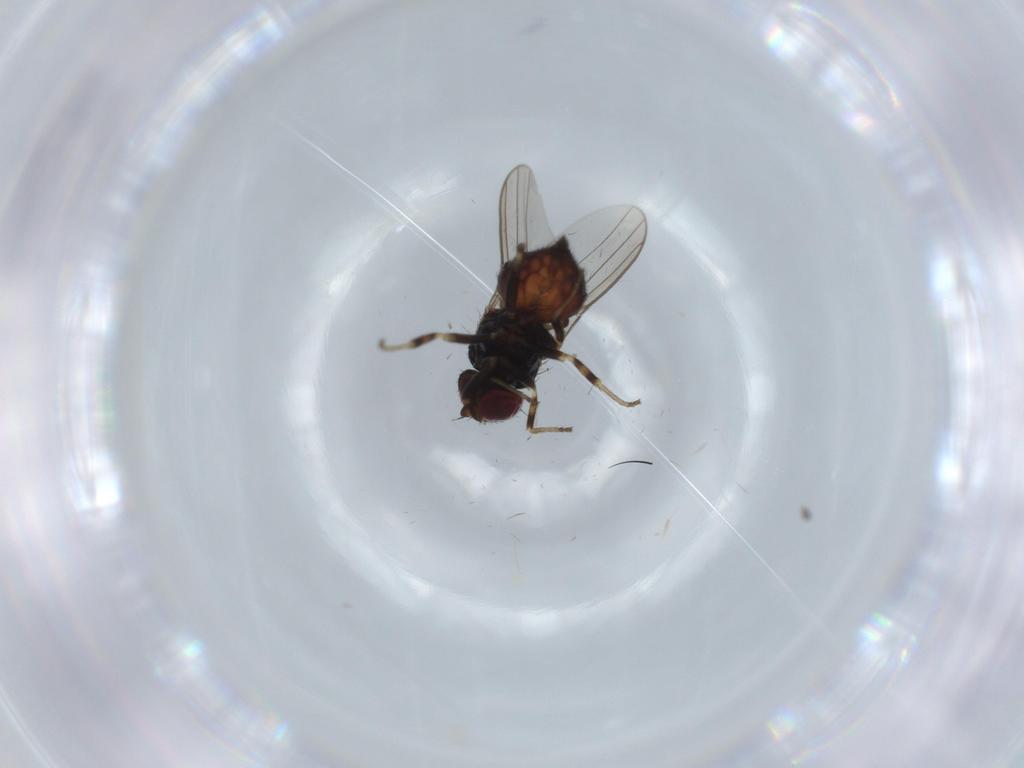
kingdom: Animalia
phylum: Arthropoda
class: Insecta
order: Diptera
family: Chloropidae
